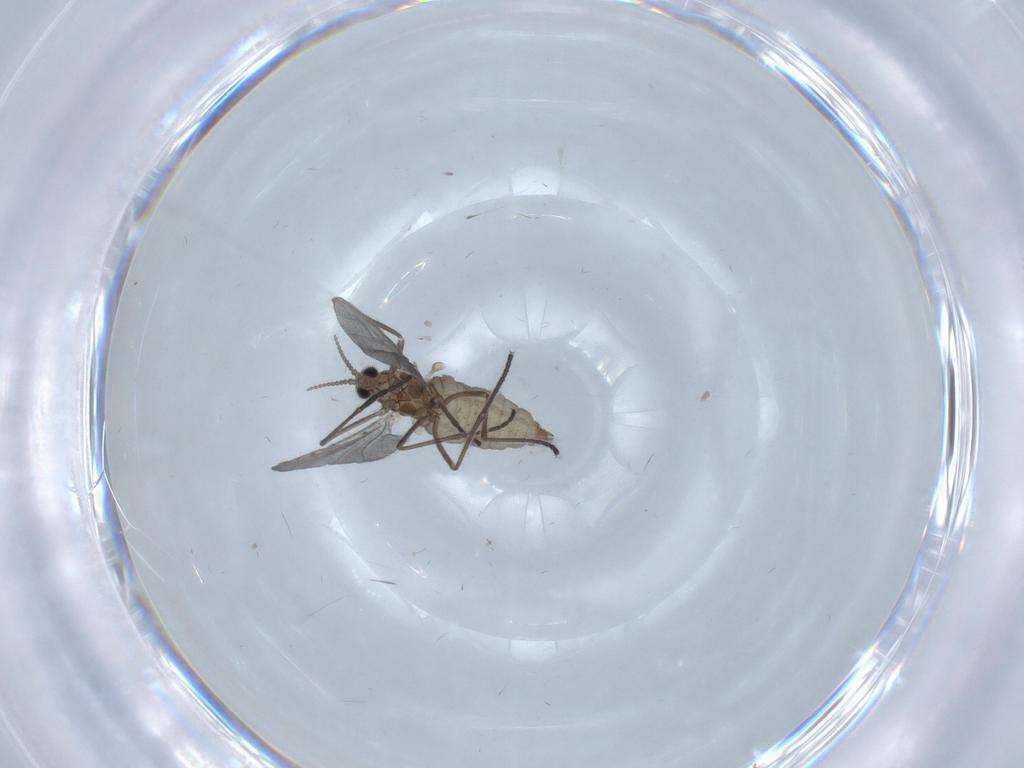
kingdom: Animalia
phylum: Arthropoda
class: Insecta
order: Diptera
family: Cecidomyiidae
